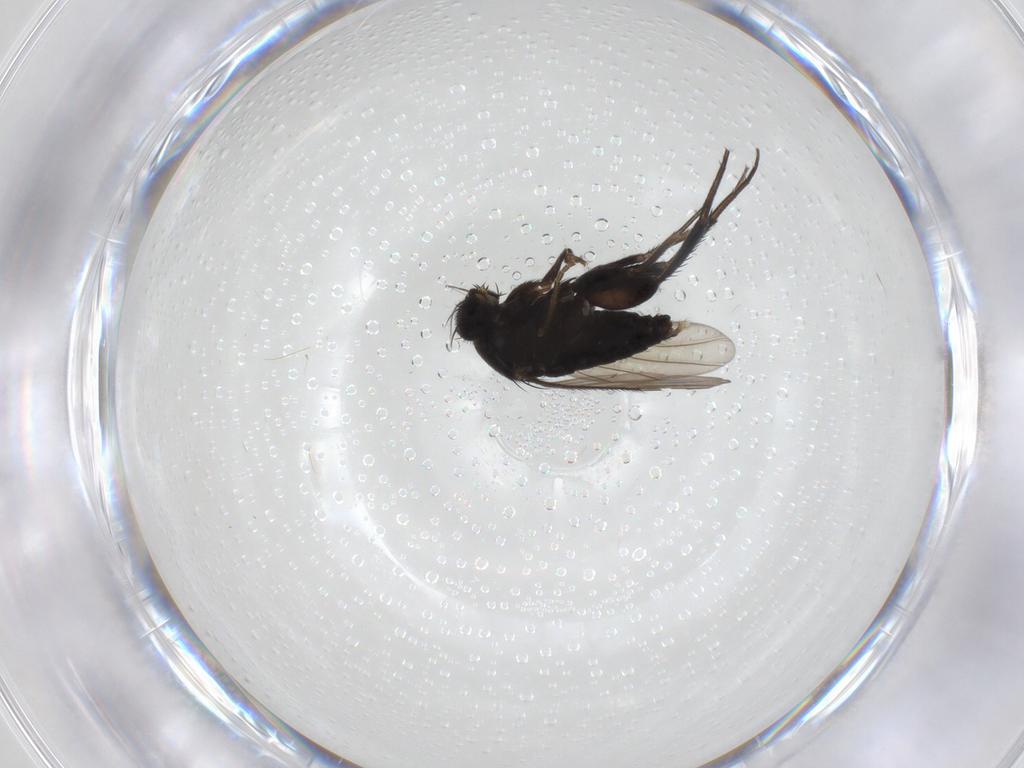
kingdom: Animalia
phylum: Arthropoda
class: Insecta
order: Diptera
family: Phoridae
